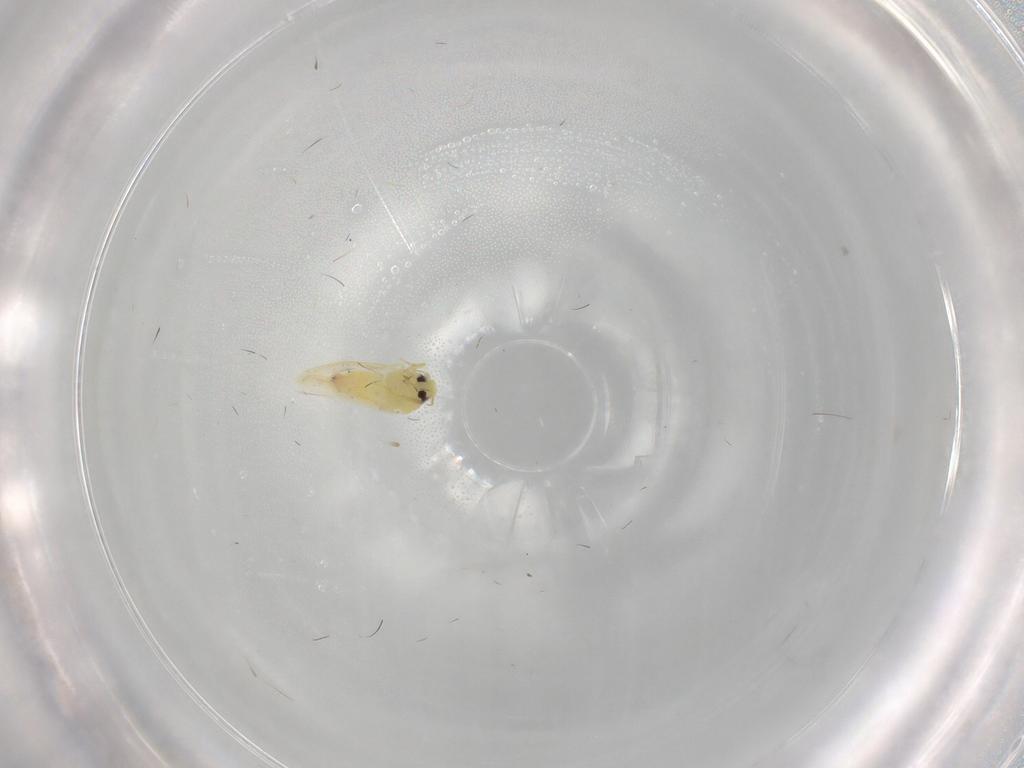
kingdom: Animalia
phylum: Arthropoda
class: Insecta
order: Hemiptera
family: Aleyrodidae
